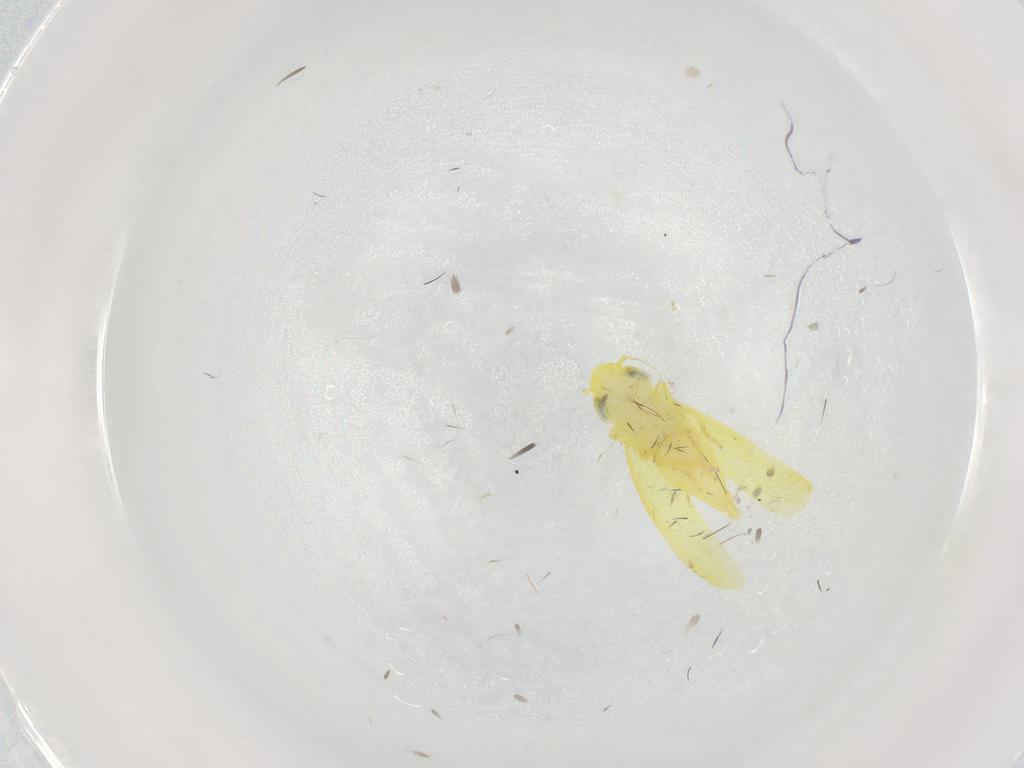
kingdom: Animalia
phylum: Arthropoda
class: Insecta
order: Hemiptera
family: Cicadellidae
